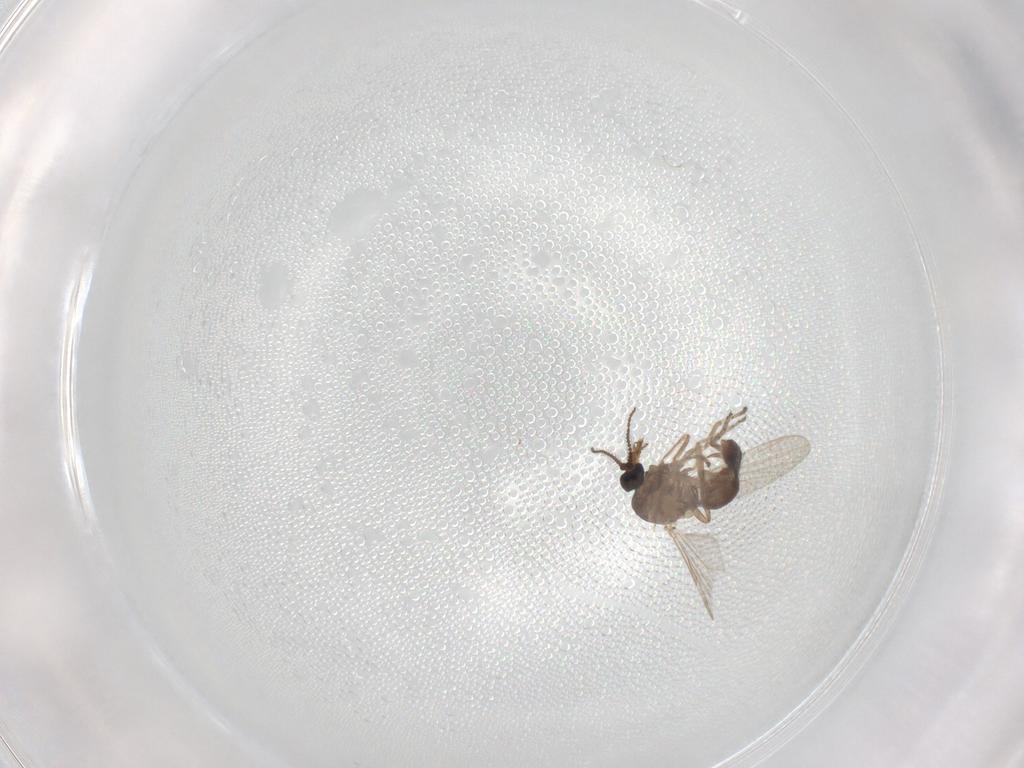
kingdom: Animalia
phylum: Arthropoda
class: Insecta
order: Diptera
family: Ceratopogonidae
